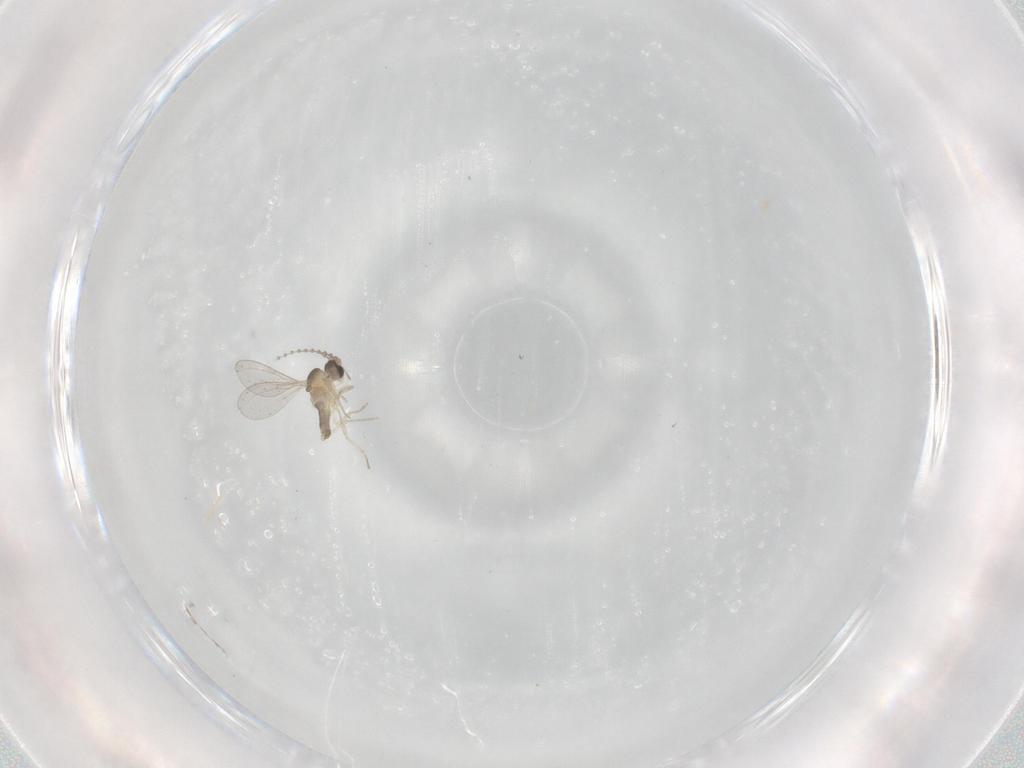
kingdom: Animalia
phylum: Arthropoda
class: Insecta
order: Diptera
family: Cecidomyiidae
